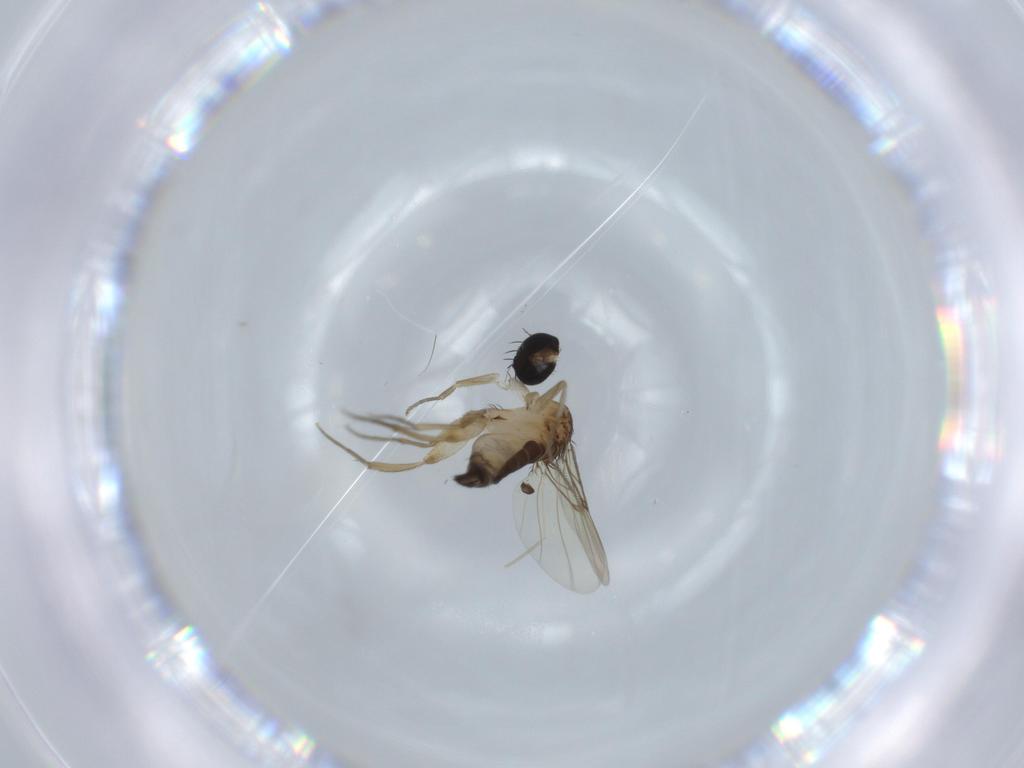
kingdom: Animalia
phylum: Arthropoda
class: Insecta
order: Diptera
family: Phoridae
